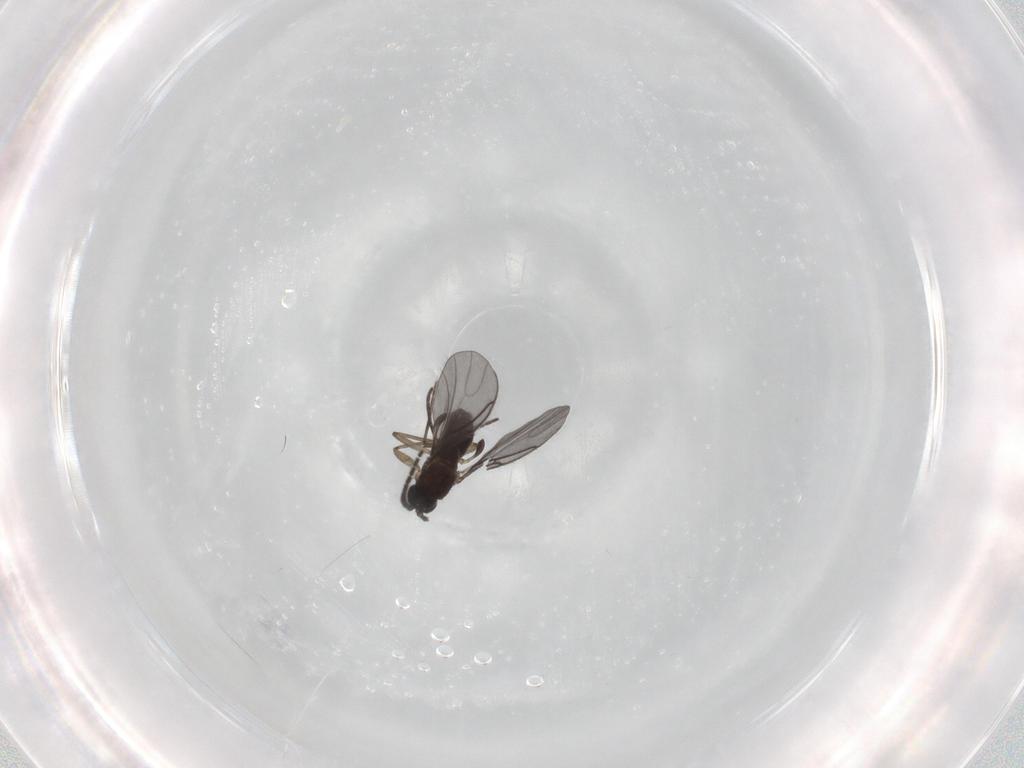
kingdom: Animalia
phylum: Arthropoda
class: Insecta
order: Diptera
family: Sciaridae
